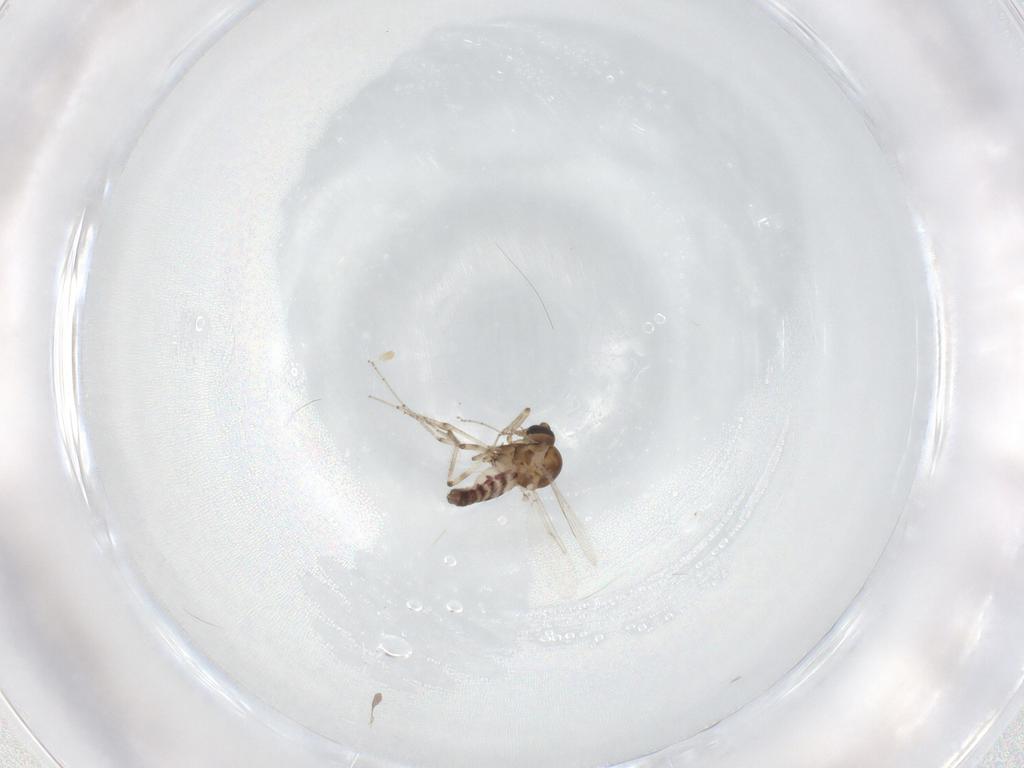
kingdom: Animalia
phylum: Arthropoda
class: Insecta
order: Diptera
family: Ceratopogonidae
